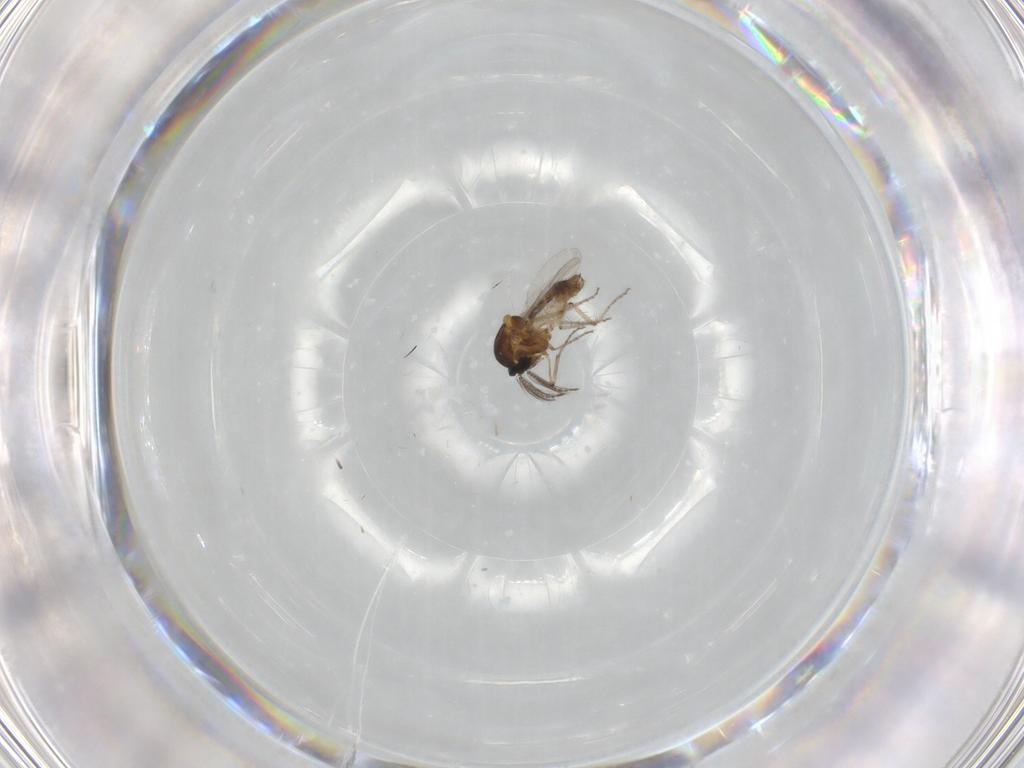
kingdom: Animalia
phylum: Arthropoda
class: Insecta
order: Diptera
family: Ceratopogonidae
